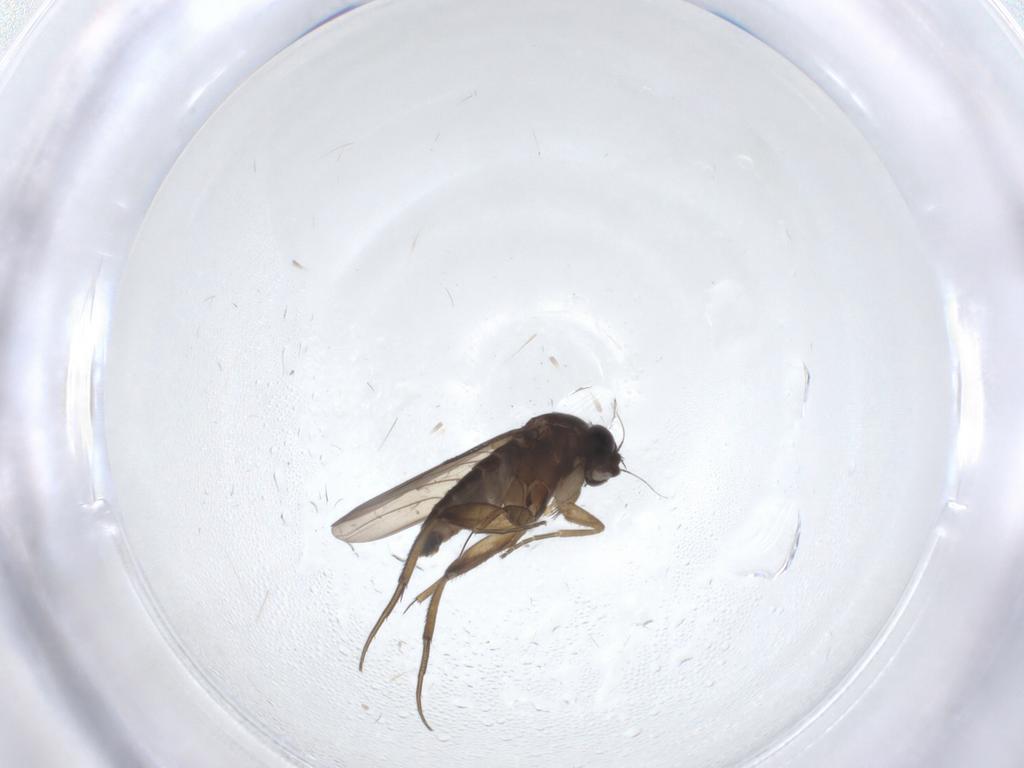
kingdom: Animalia
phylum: Arthropoda
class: Insecta
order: Diptera
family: Phoridae
